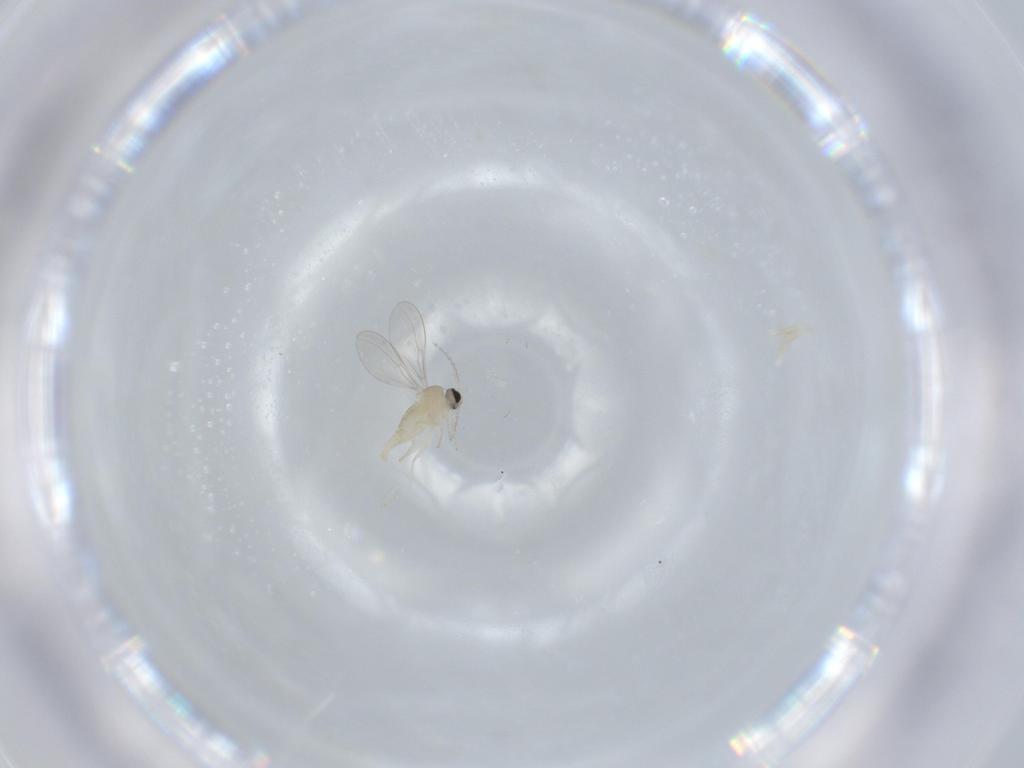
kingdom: Animalia
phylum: Arthropoda
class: Insecta
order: Diptera
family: Cecidomyiidae
